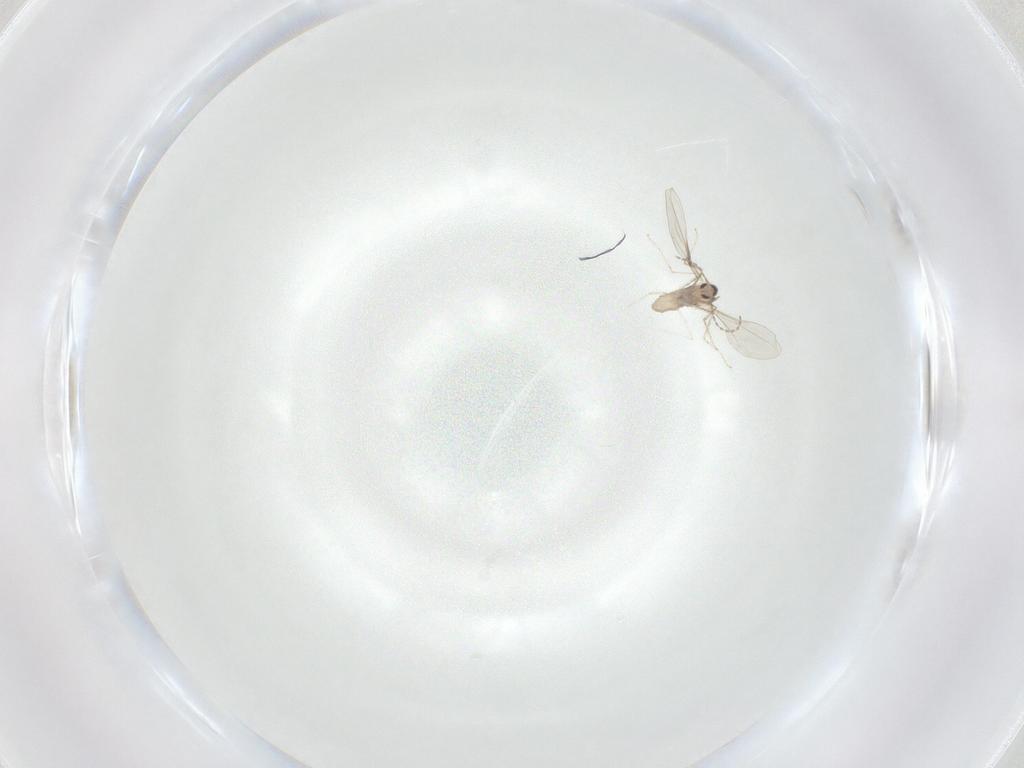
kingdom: Animalia
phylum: Arthropoda
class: Insecta
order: Diptera
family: Cecidomyiidae
